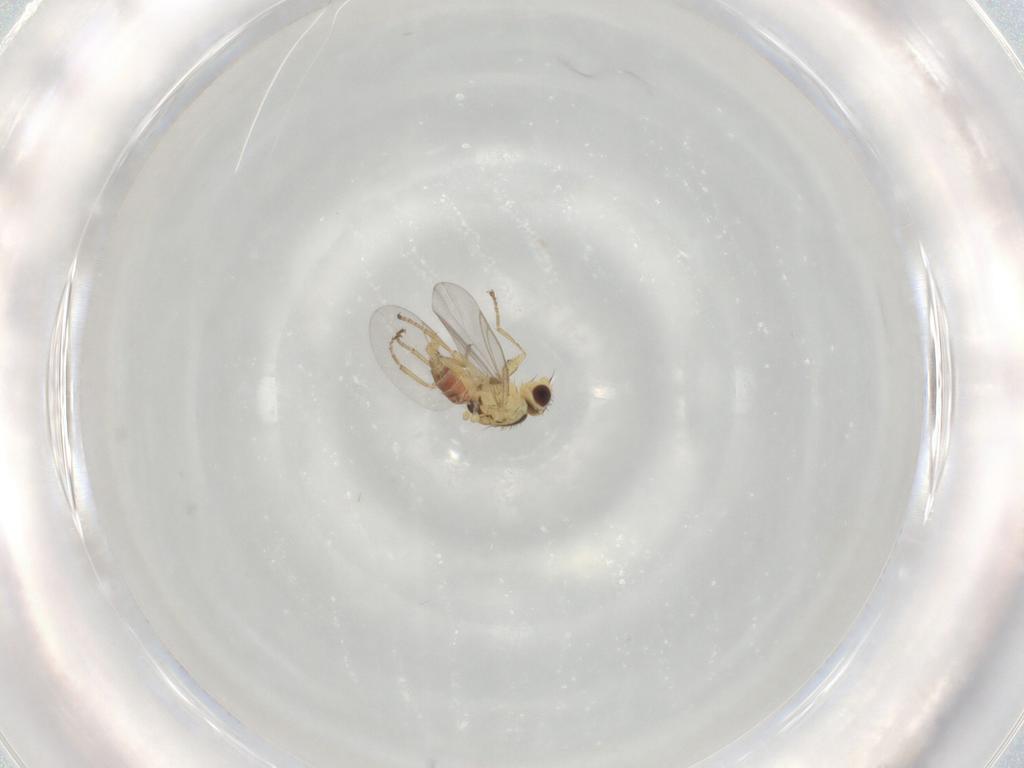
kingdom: Animalia
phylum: Arthropoda
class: Insecta
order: Diptera
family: Agromyzidae
